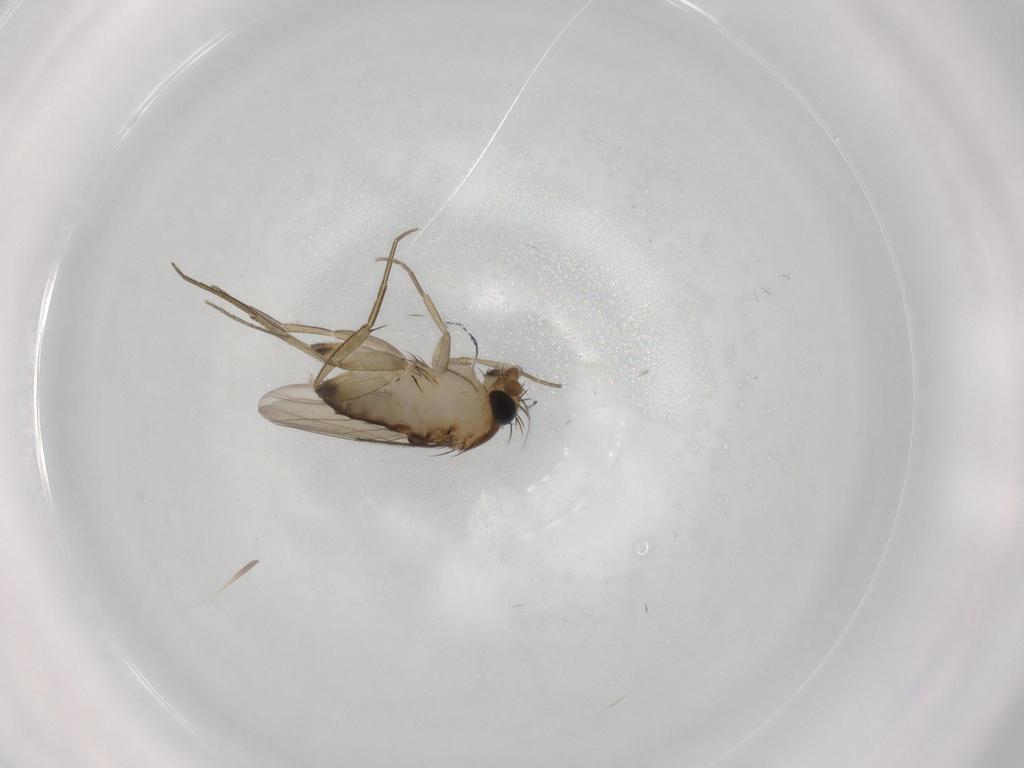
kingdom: Animalia
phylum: Arthropoda
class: Insecta
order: Diptera
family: Phoridae
